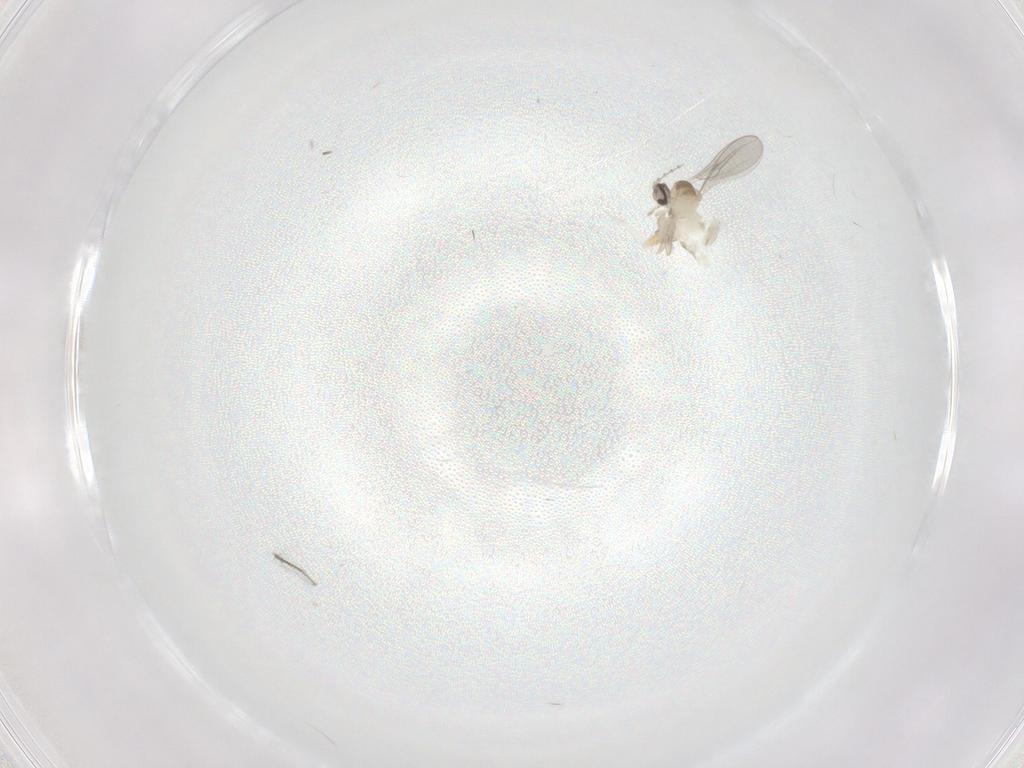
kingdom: Animalia
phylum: Arthropoda
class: Insecta
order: Diptera
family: Cecidomyiidae
